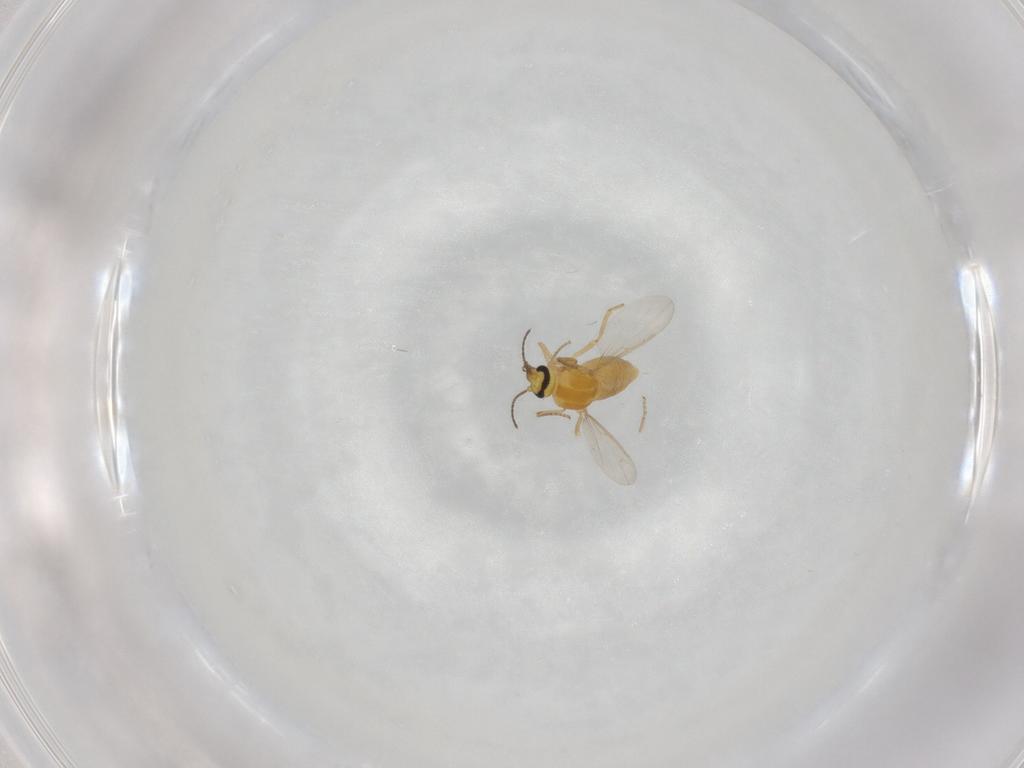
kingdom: Animalia
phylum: Arthropoda
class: Insecta
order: Diptera
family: Ceratopogonidae
